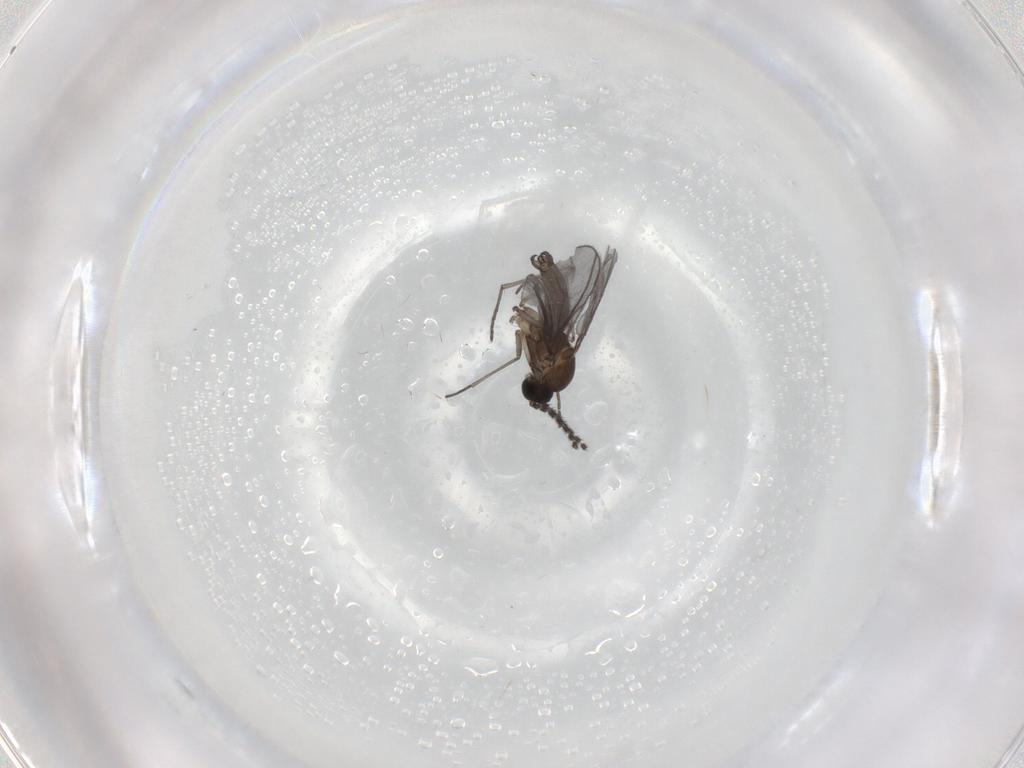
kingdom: Animalia
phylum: Arthropoda
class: Insecta
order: Diptera
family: Sciaridae
